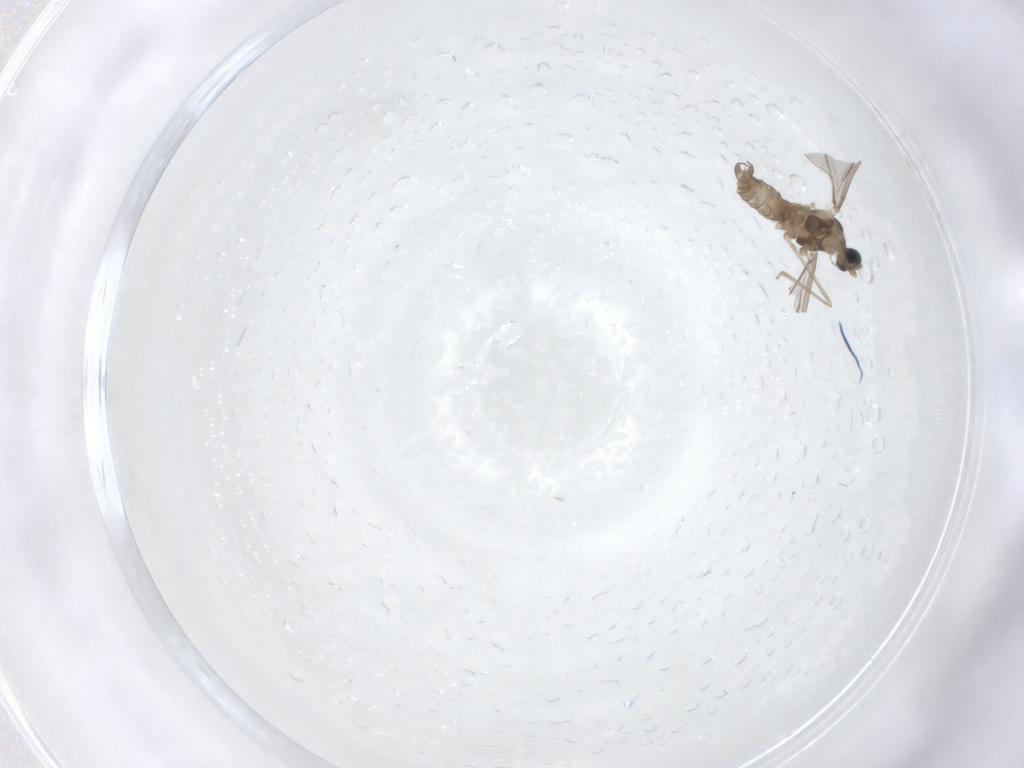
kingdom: Animalia
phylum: Arthropoda
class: Insecta
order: Diptera
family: Cecidomyiidae
